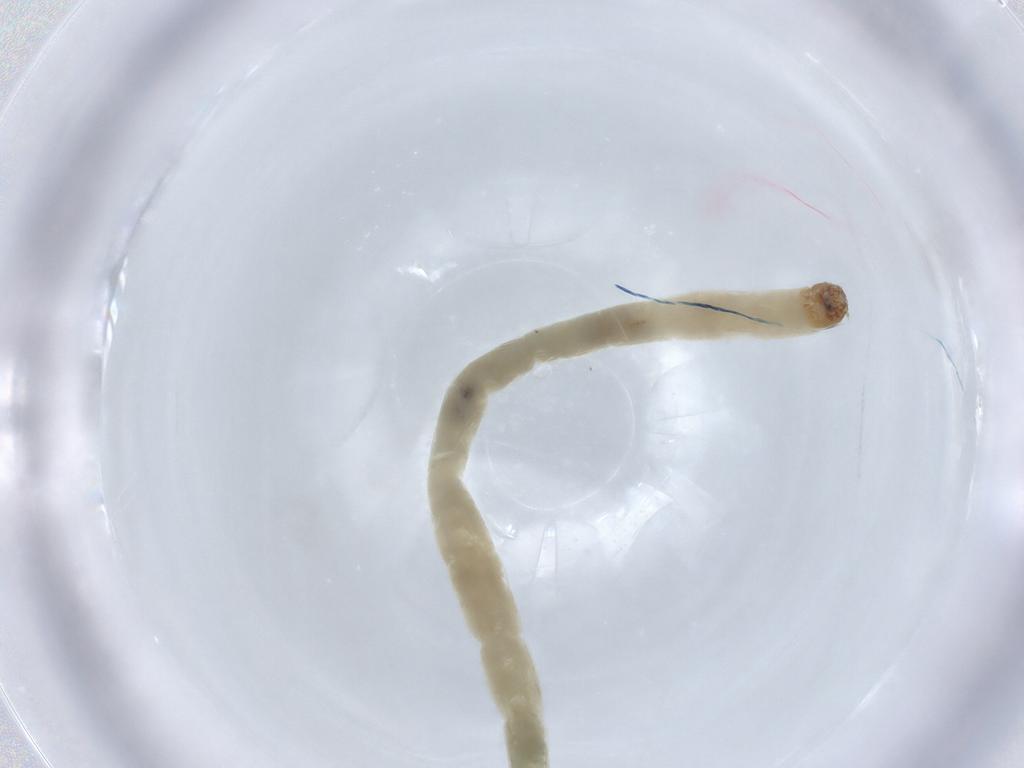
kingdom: Animalia
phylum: Arthropoda
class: Insecta
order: Diptera
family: Chironomidae
